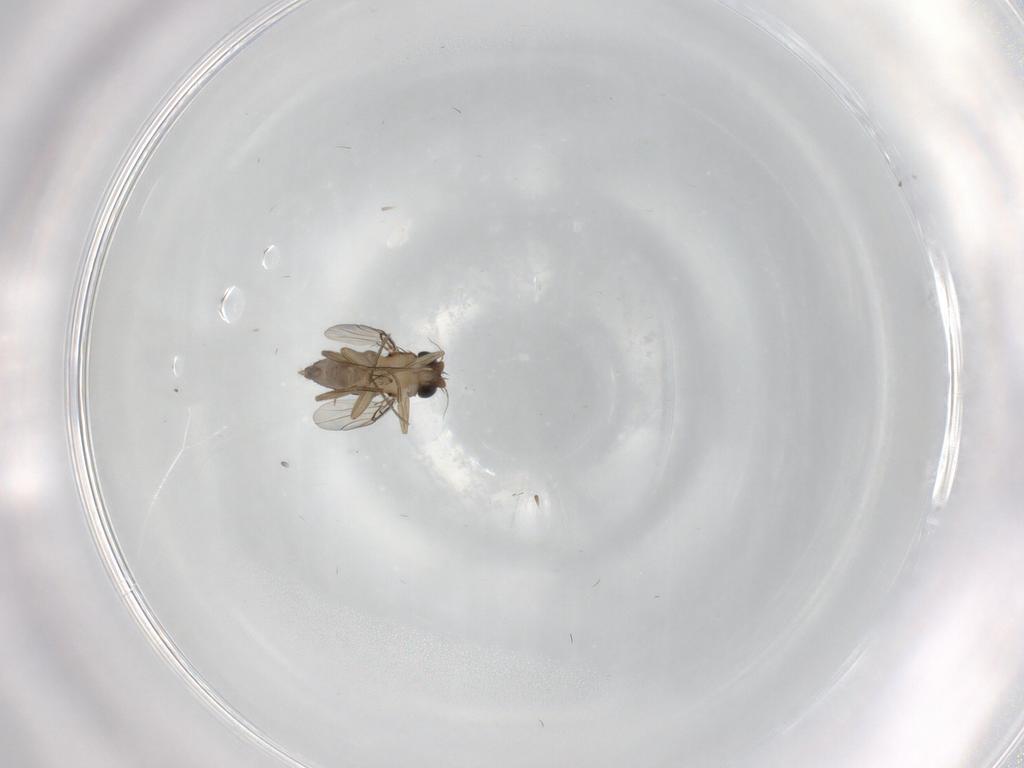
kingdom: Animalia
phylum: Arthropoda
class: Insecta
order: Diptera
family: Phoridae
